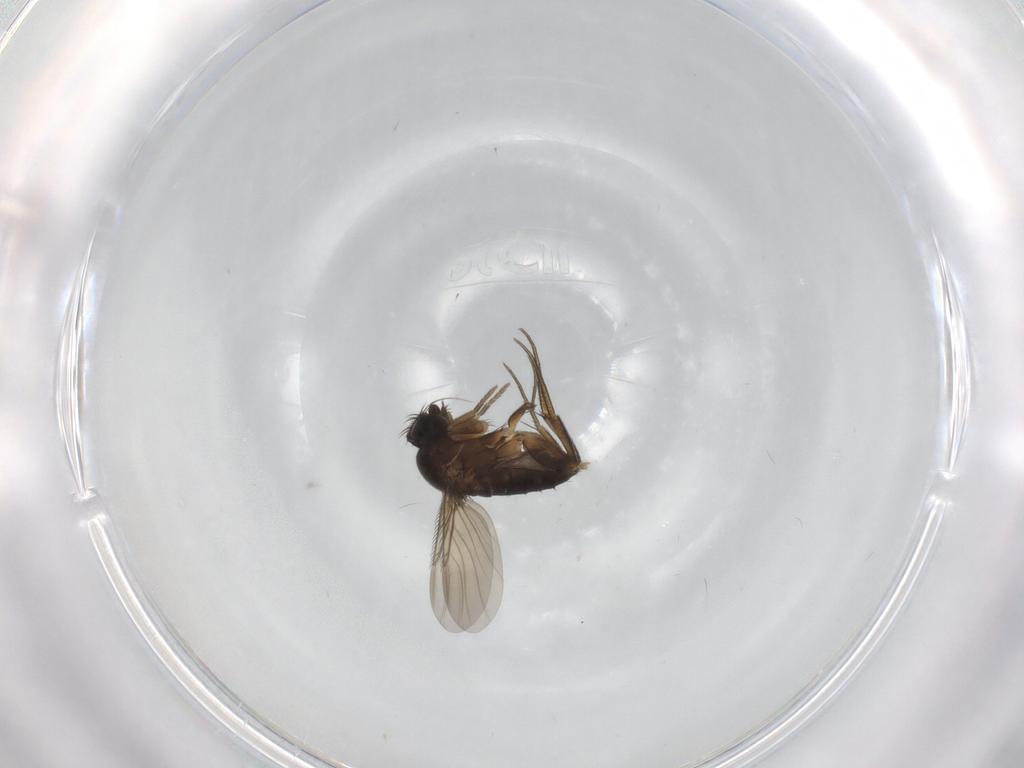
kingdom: Animalia
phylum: Arthropoda
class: Insecta
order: Diptera
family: Phoridae
